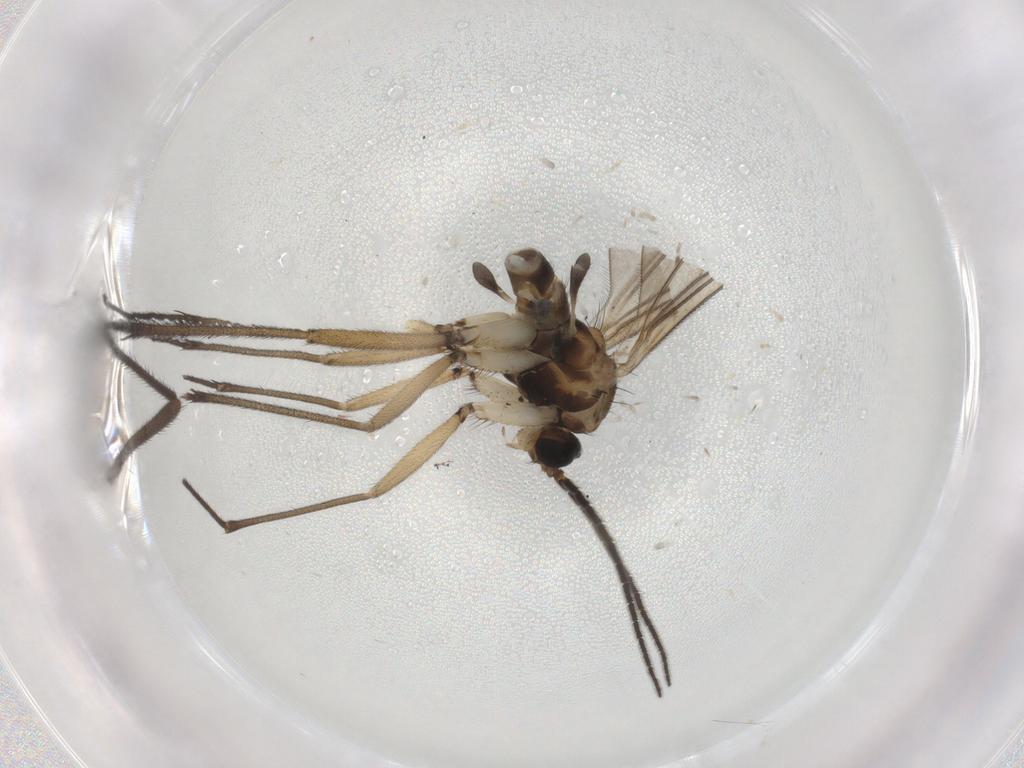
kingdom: Animalia
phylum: Arthropoda
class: Insecta
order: Diptera
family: Sciaridae
